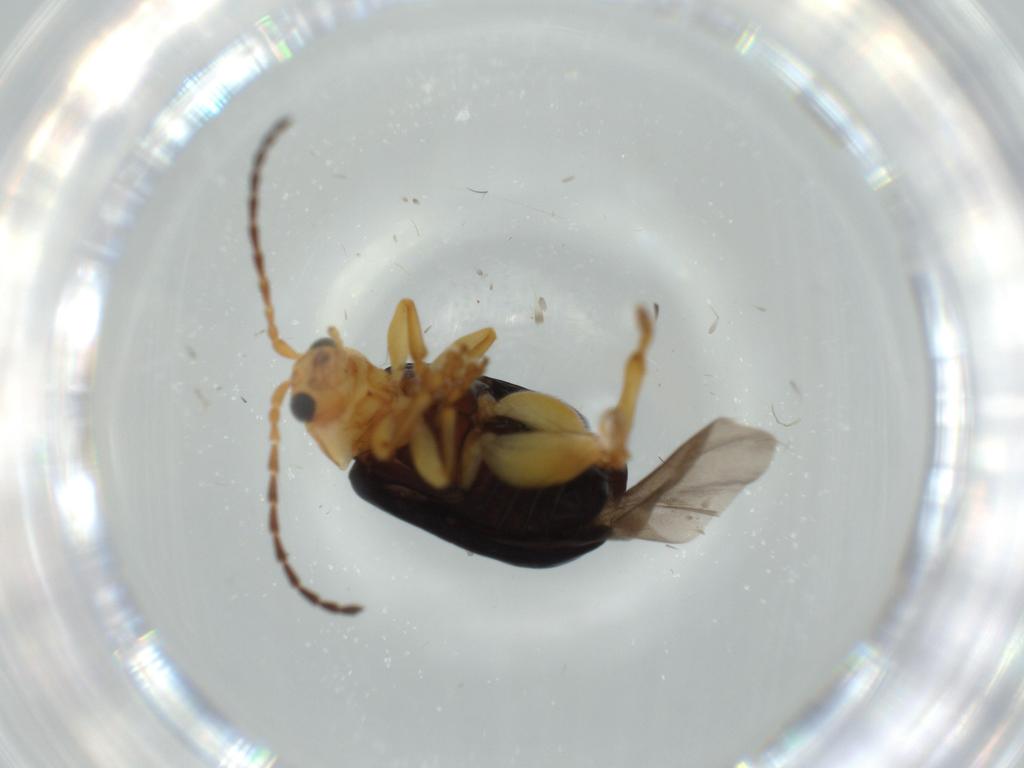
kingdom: Animalia
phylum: Arthropoda
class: Insecta
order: Coleoptera
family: Chrysomelidae
